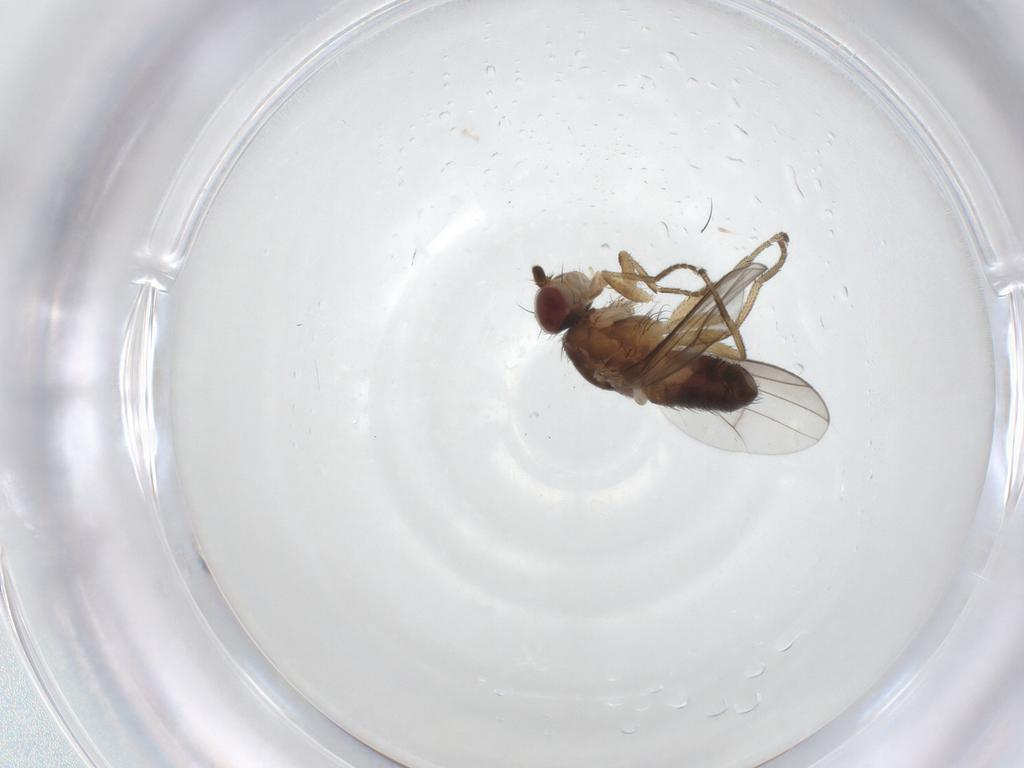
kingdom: Animalia
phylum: Arthropoda
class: Insecta
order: Diptera
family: Heleomyzidae
